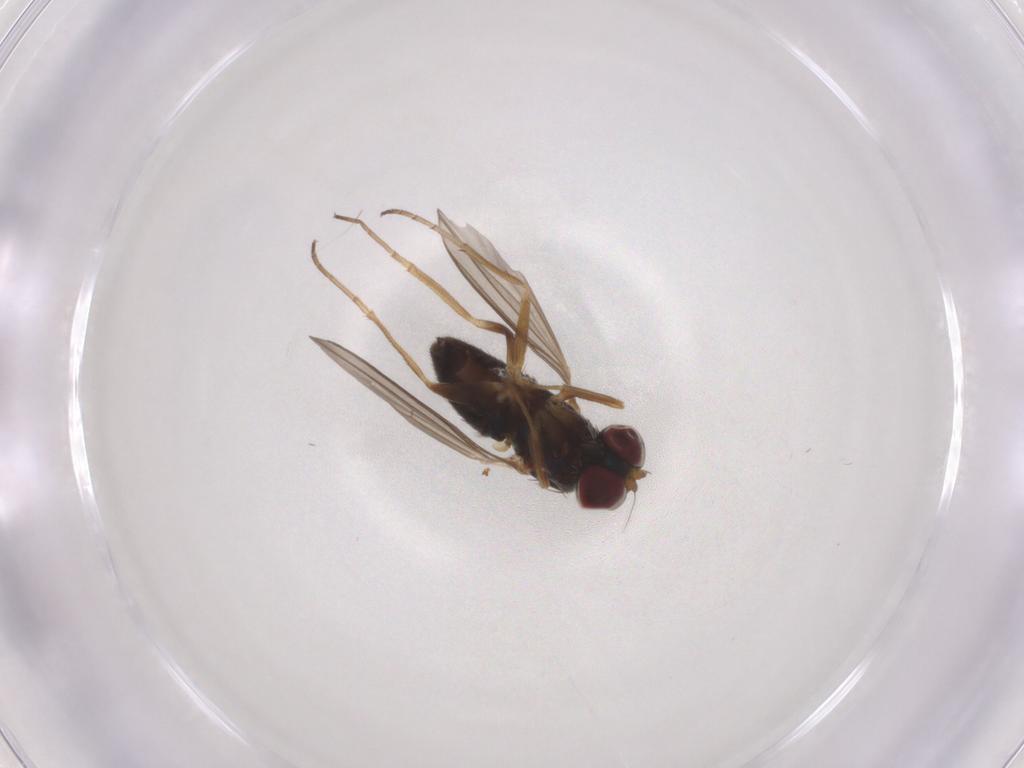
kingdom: Animalia
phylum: Arthropoda
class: Insecta
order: Diptera
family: Dolichopodidae
